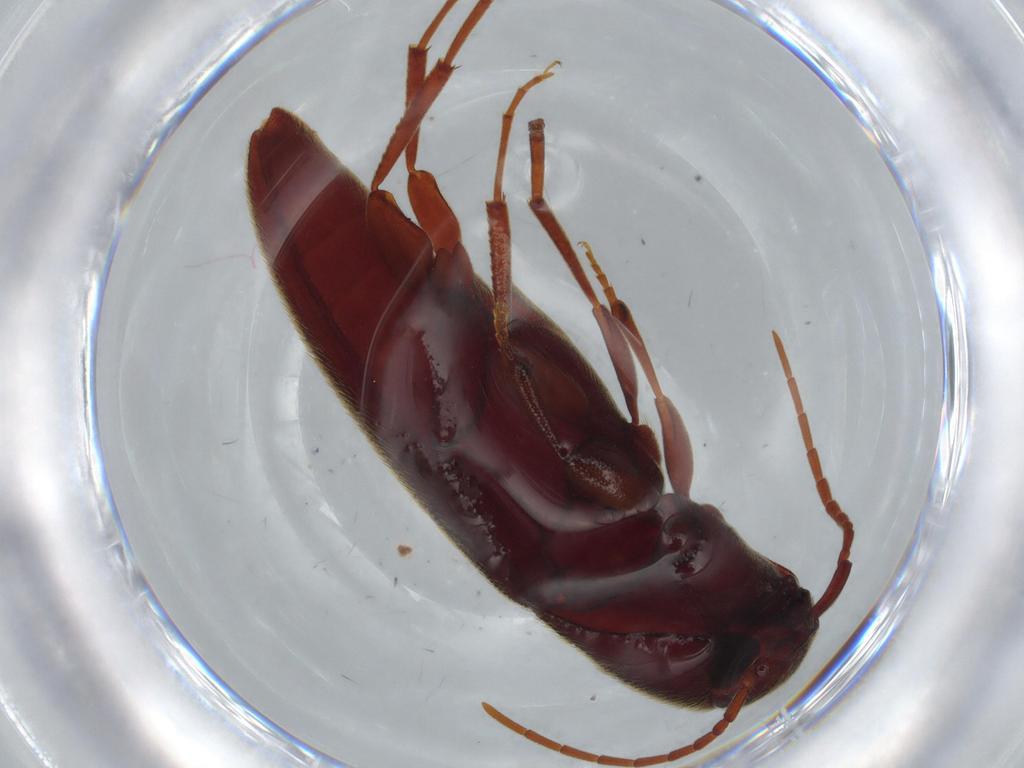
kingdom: Animalia
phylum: Arthropoda
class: Insecta
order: Coleoptera
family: Eucnemidae
